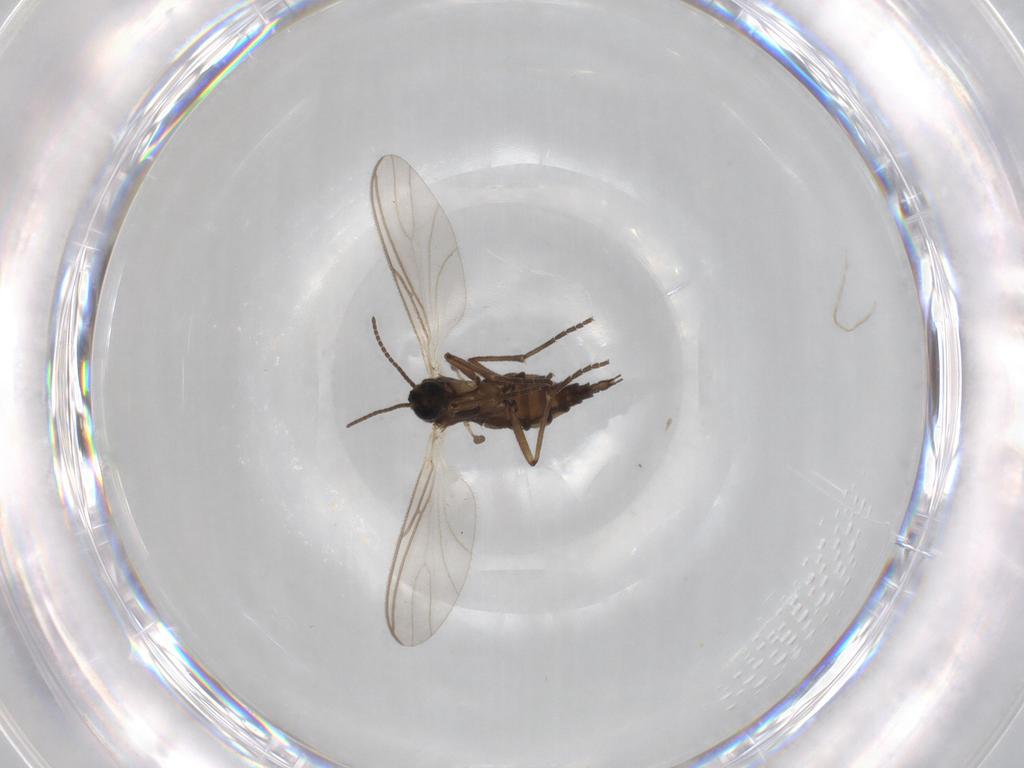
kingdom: Animalia
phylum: Arthropoda
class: Insecta
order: Diptera
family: Sciaridae
